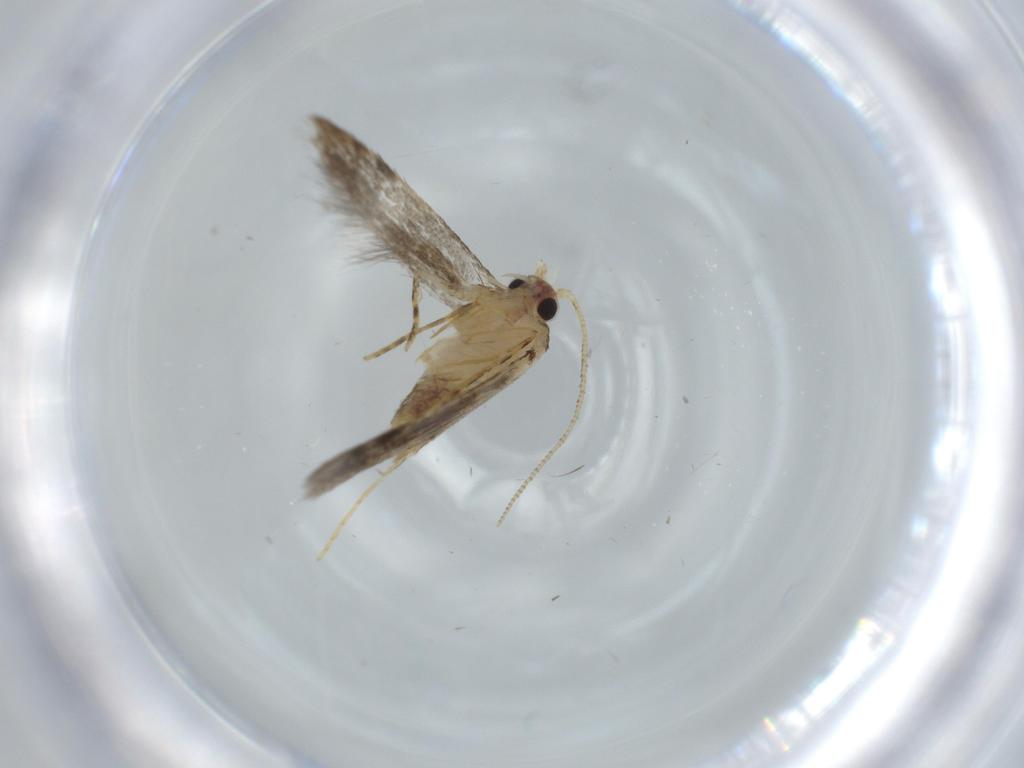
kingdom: Animalia
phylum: Arthropoda
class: Insecta
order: Lepidoptera
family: Tineidae
